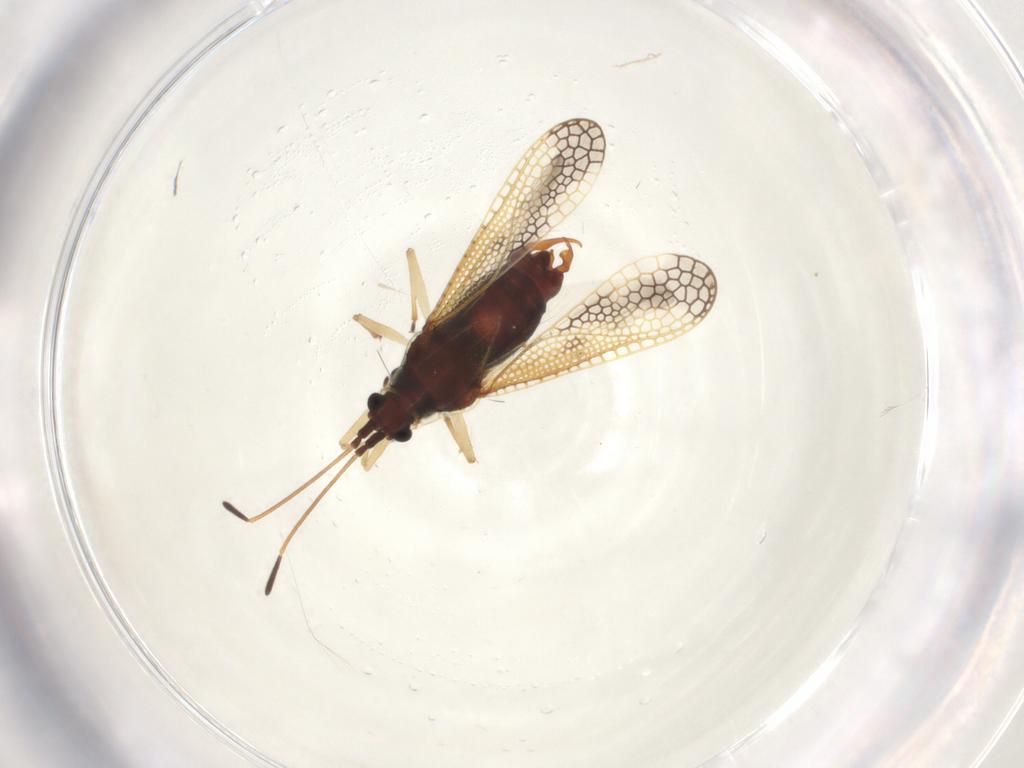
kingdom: Animalia
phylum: Arthropoda
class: Insecta
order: Hemiptera
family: Tingidae
